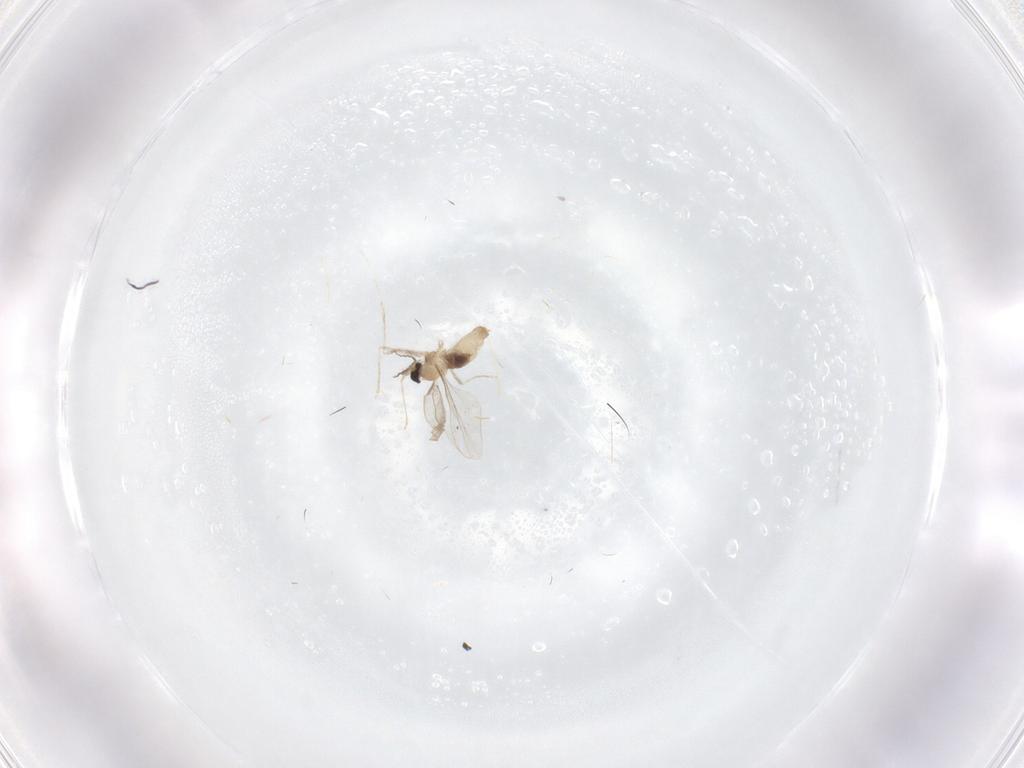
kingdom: Animalia
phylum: Arthropoda
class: Insecta
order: Diptera
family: Cecidomyiidae
